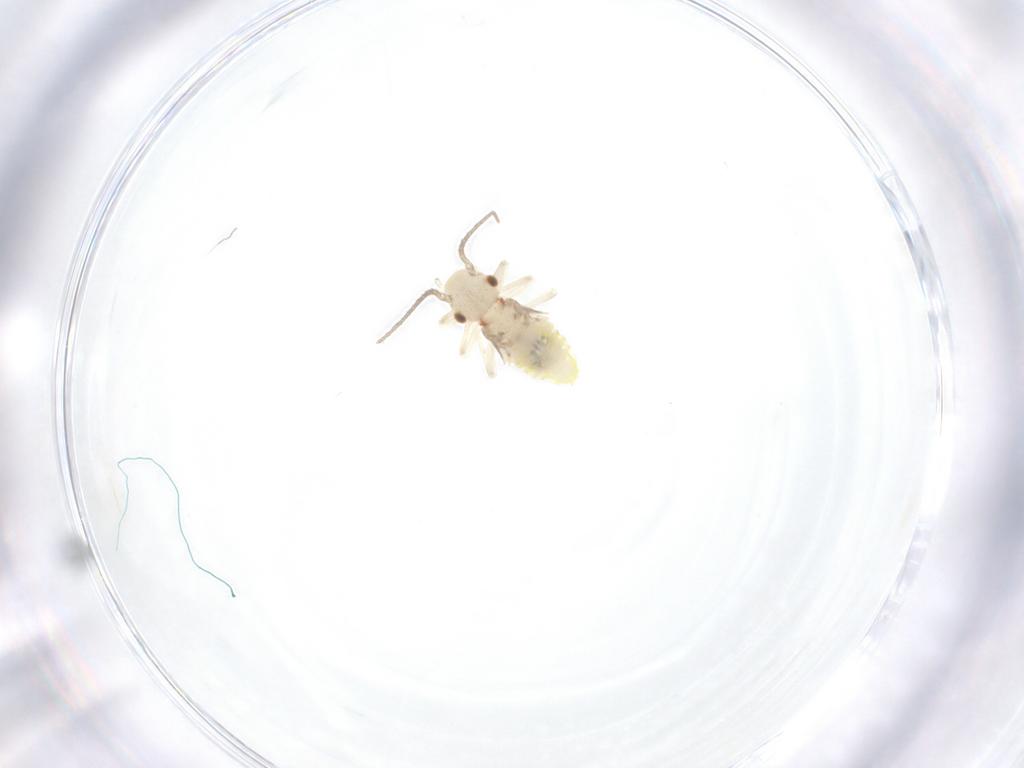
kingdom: Animalia
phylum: Arthropoda
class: Insecta
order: Psocodea
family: Caeciliusidae
